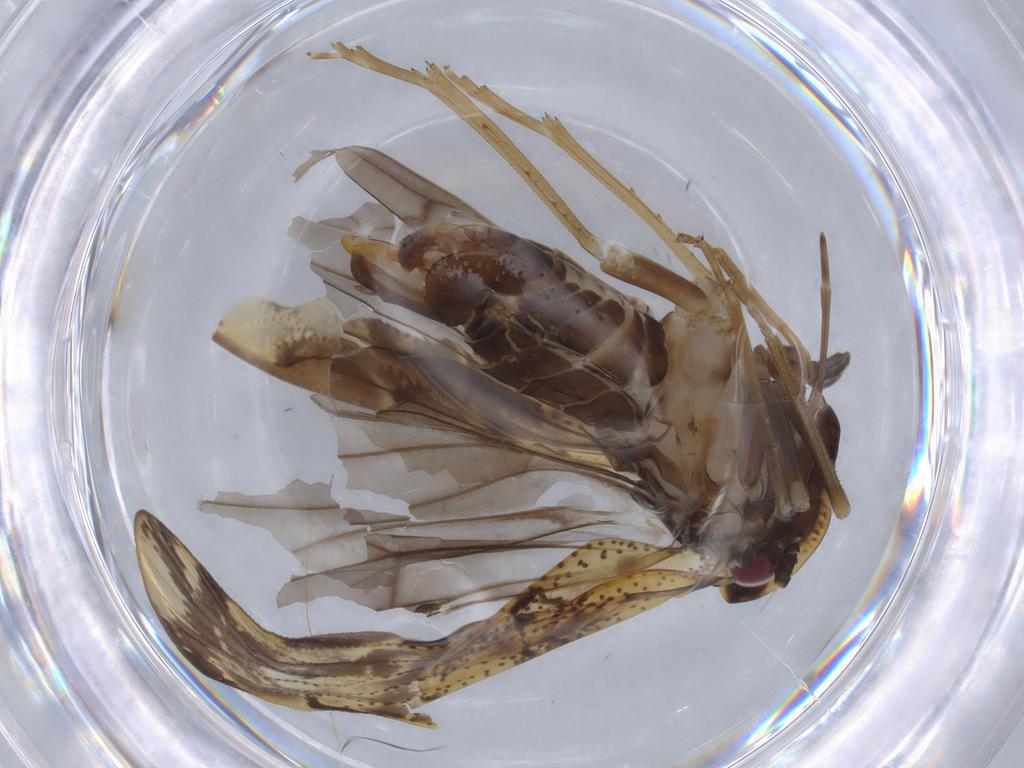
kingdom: Animalia
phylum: Arthropoda
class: Insecta
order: Hemiptera
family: Cixiidae
